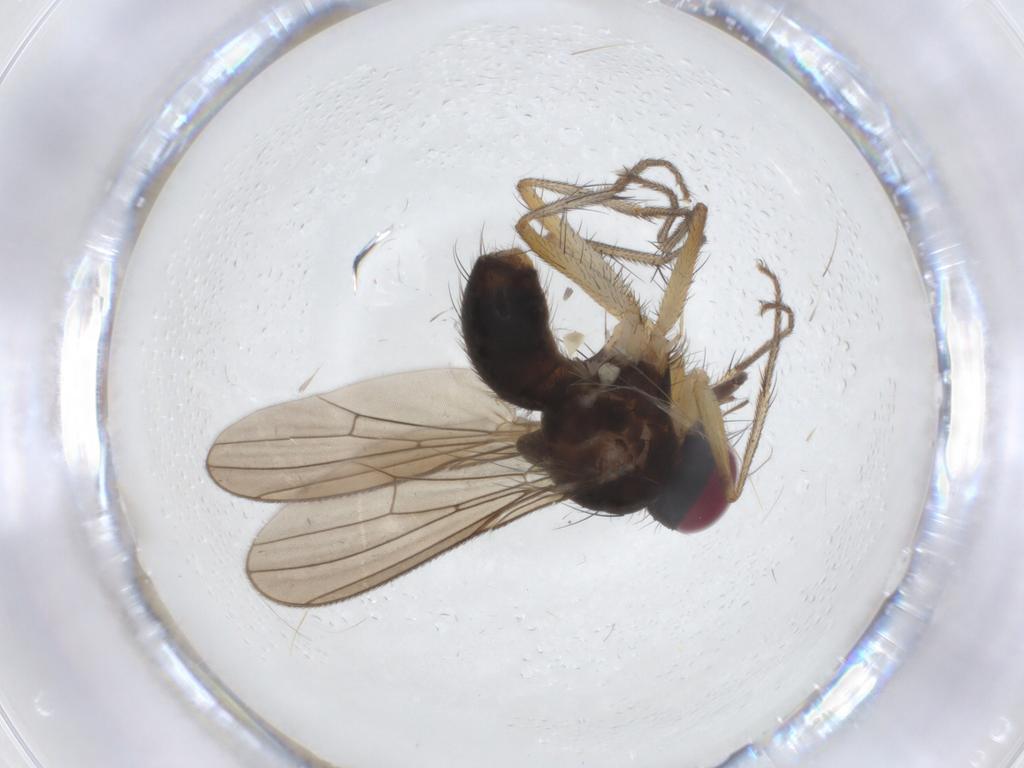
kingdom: Animalia
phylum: Arthropoda
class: Insecta
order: Diptera
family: Anthomyiidae
